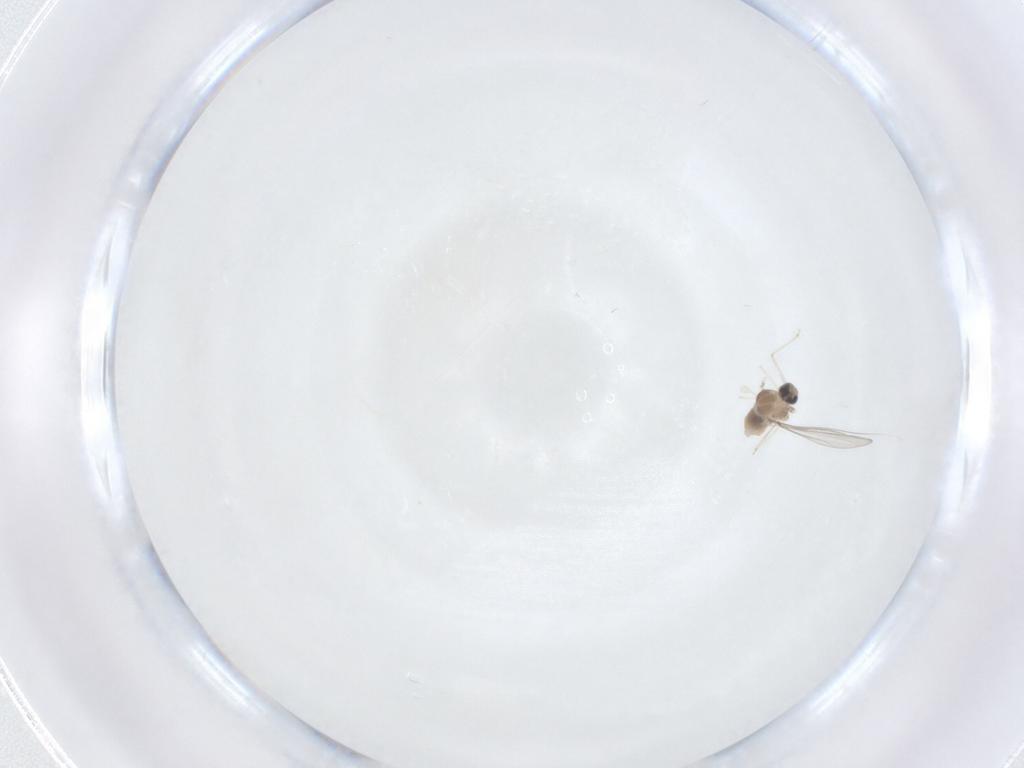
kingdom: Animalia
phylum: Arthropoda
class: Insecta
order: Diptera
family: Cecidomyiidae
